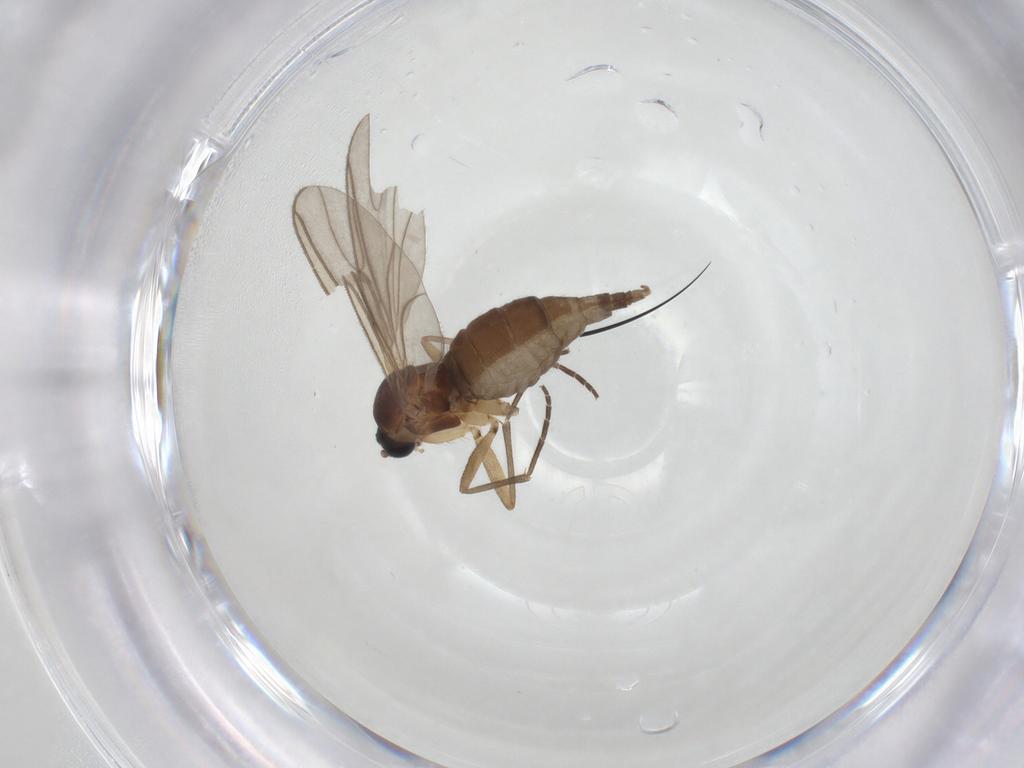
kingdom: Animalia
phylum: Arthropoda
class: Insecta
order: Diptera
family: Sciaridae
